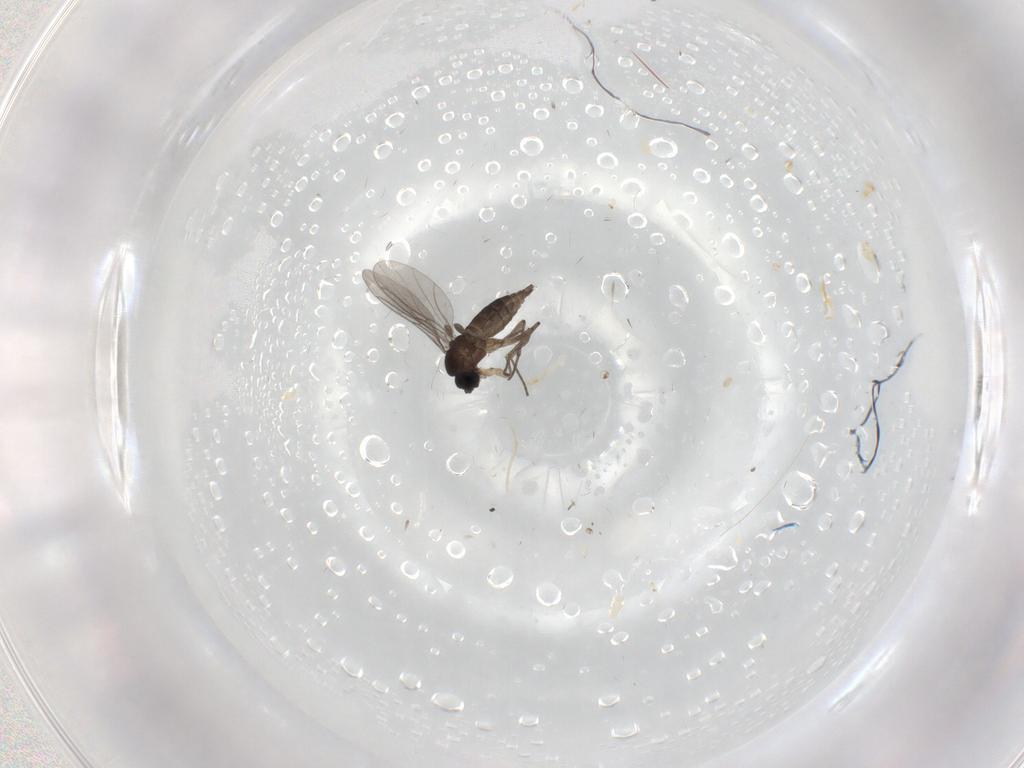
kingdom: Animalia
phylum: Arthropoda
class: Insecta
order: Diptera
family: Sciaridae
